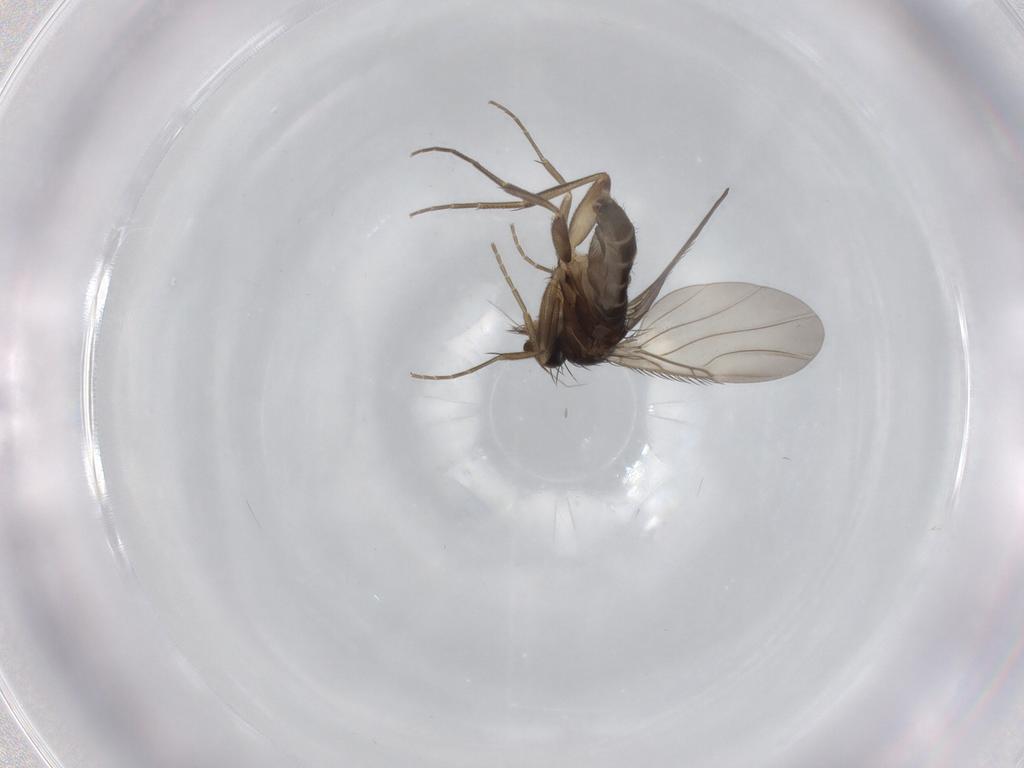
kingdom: Animalia
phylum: Arthropoda
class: Insecta
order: Diptera
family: Phoridae
